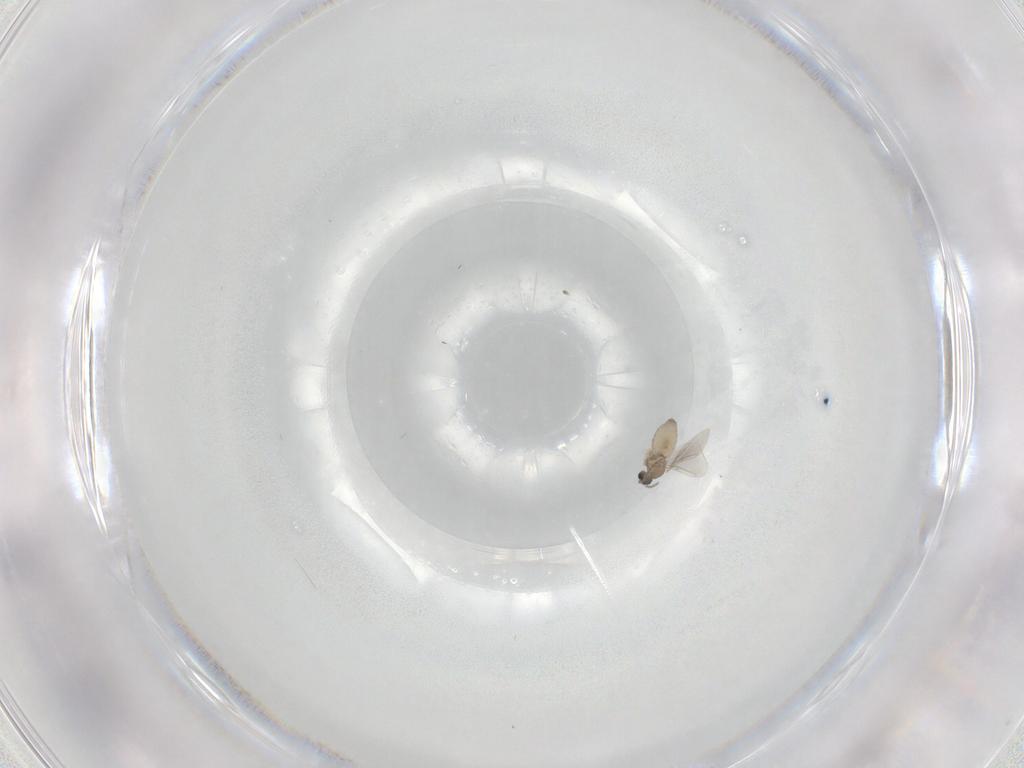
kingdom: Animalia
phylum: Arthropoda
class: Insecta
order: Diptera
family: Cecidomyiidae
